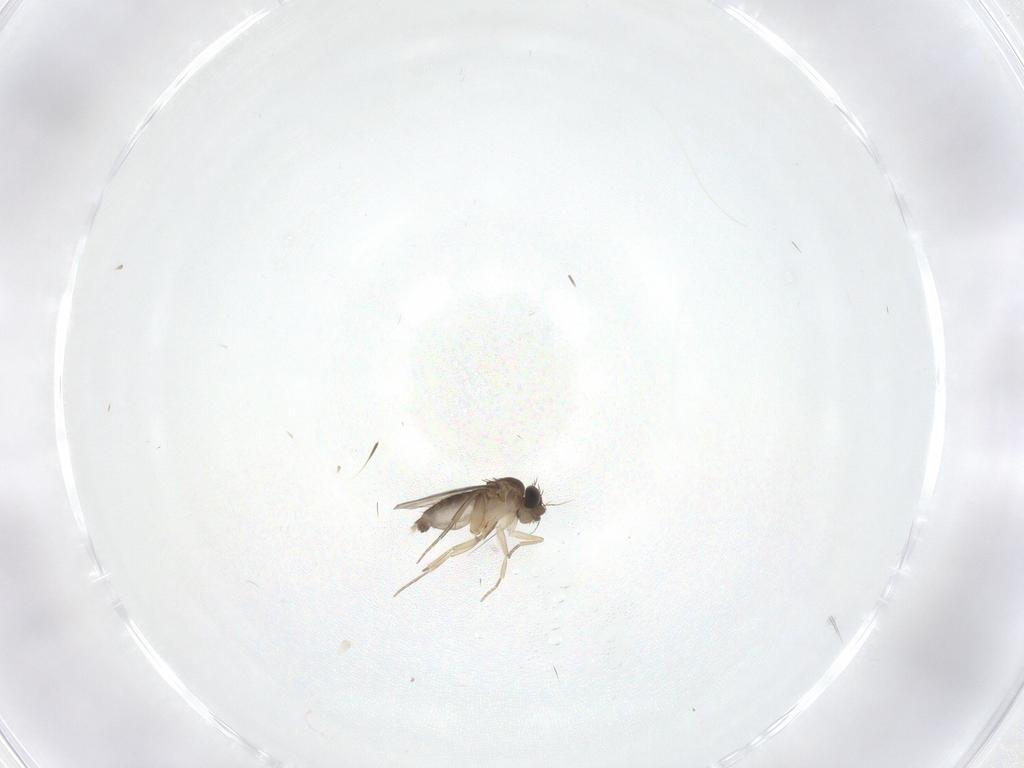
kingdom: Animalia
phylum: Arthropoda
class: Insecta
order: Diptera
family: Phoridae
